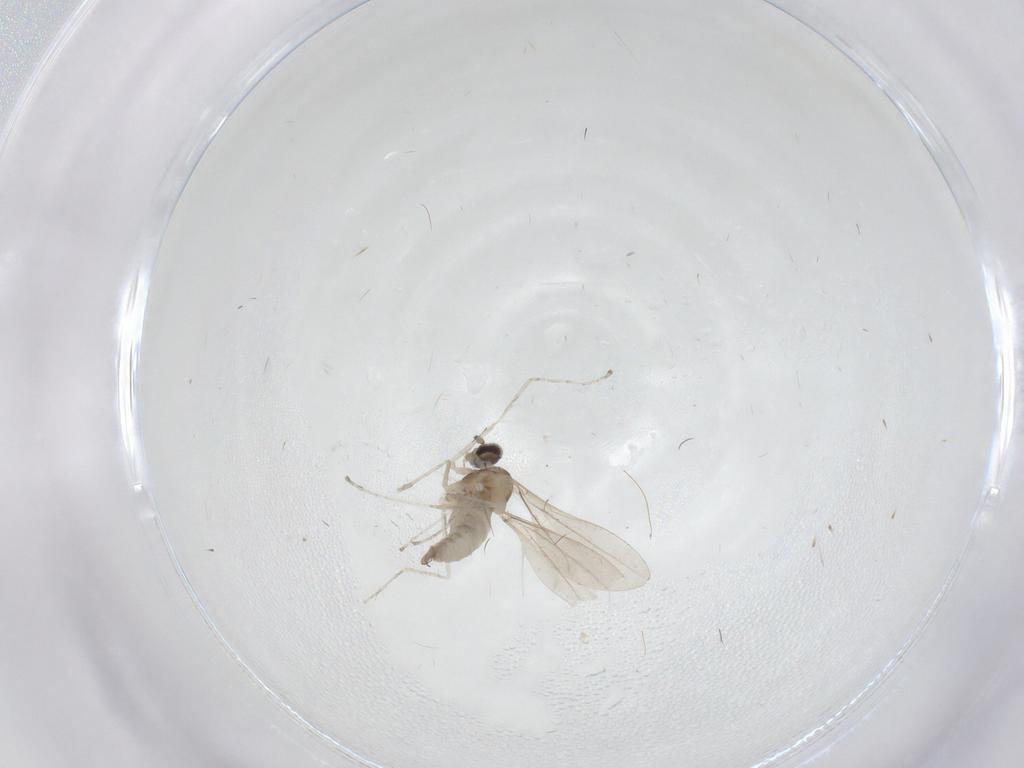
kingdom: Animalia
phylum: Arthropoda
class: Insecta
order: Diptera
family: Cecidomyiidae
